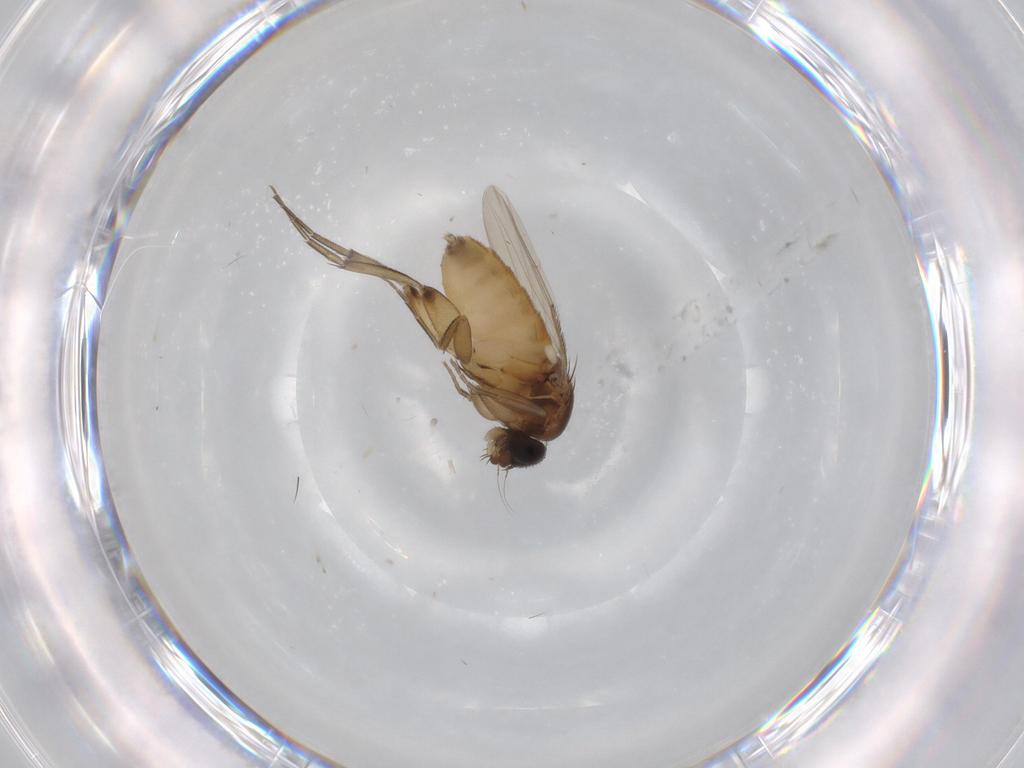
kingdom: Animalia
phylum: Arthropoda
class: Insecta
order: Diptera
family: Phoridae
